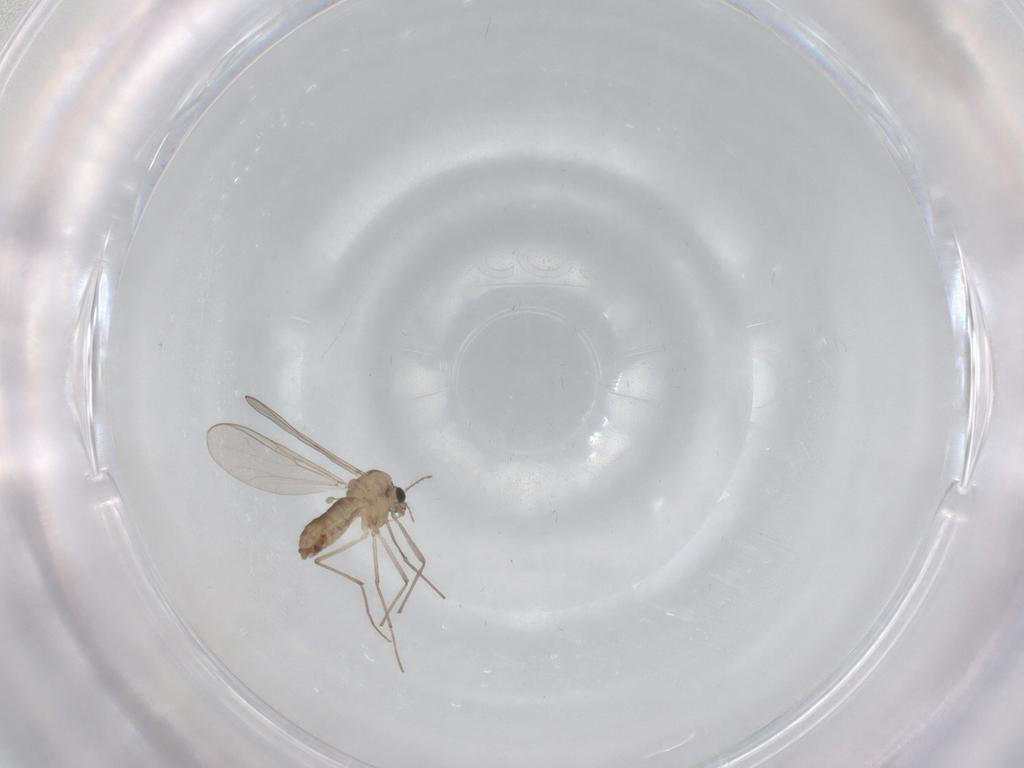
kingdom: Animalia
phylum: Arthropoda
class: Insecta
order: Diptera
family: Chironomidae
